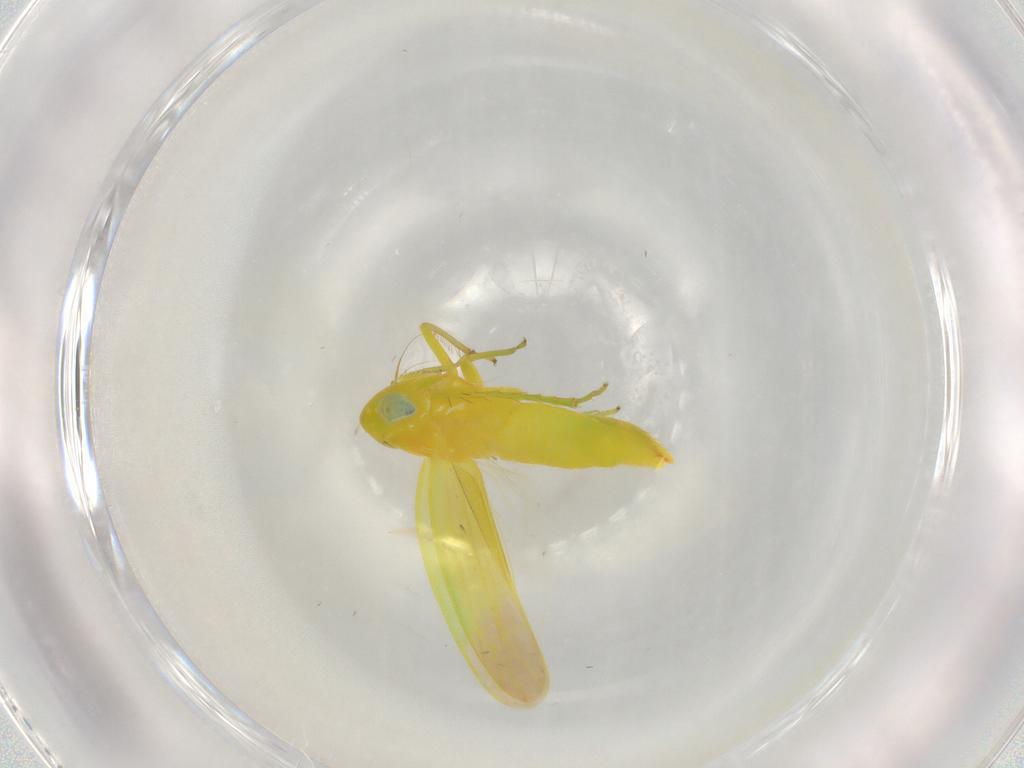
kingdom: Animalia
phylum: Arthropoda
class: Insecta
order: Hemiptera
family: Cicadellidae
